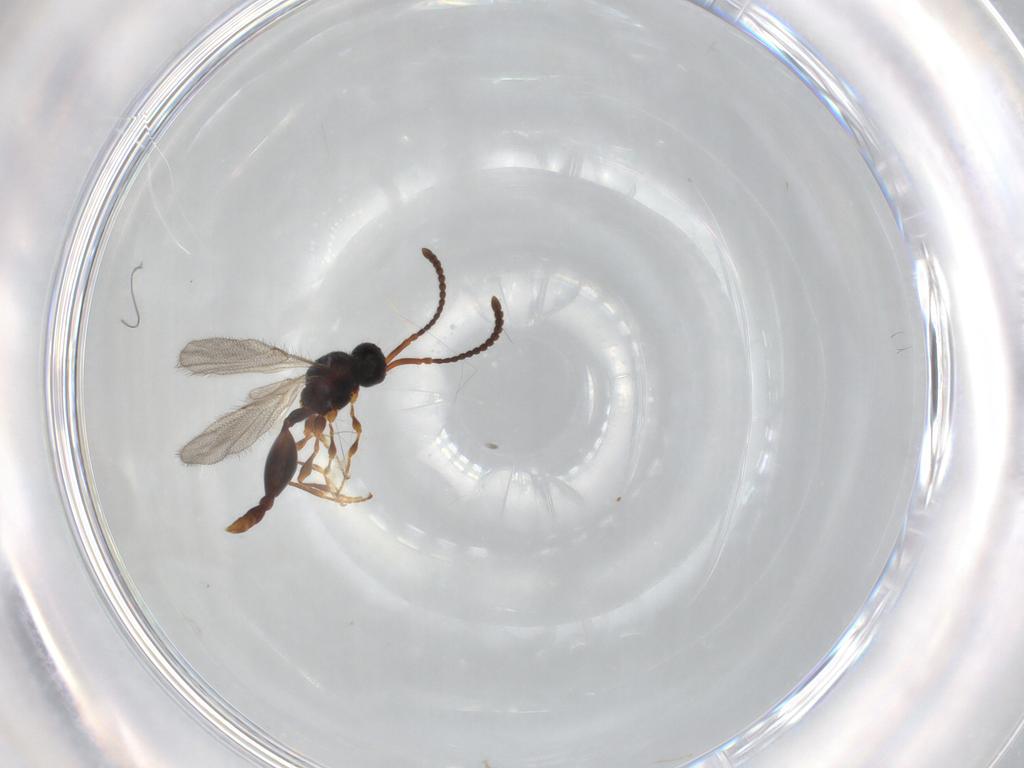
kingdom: Animalia
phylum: Arthropoda
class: Insecta
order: Hymenoptera
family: Diapriidae
